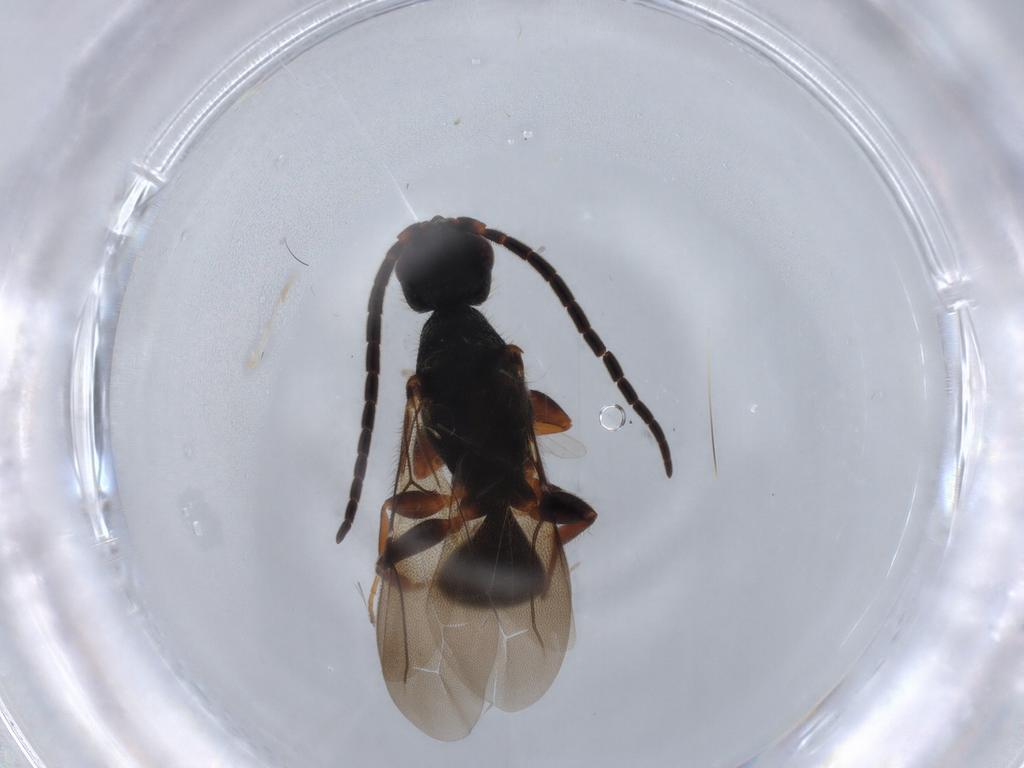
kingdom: Animalia
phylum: Arthropoda
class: Insecta
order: Hymenoptera
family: Bethylidae
